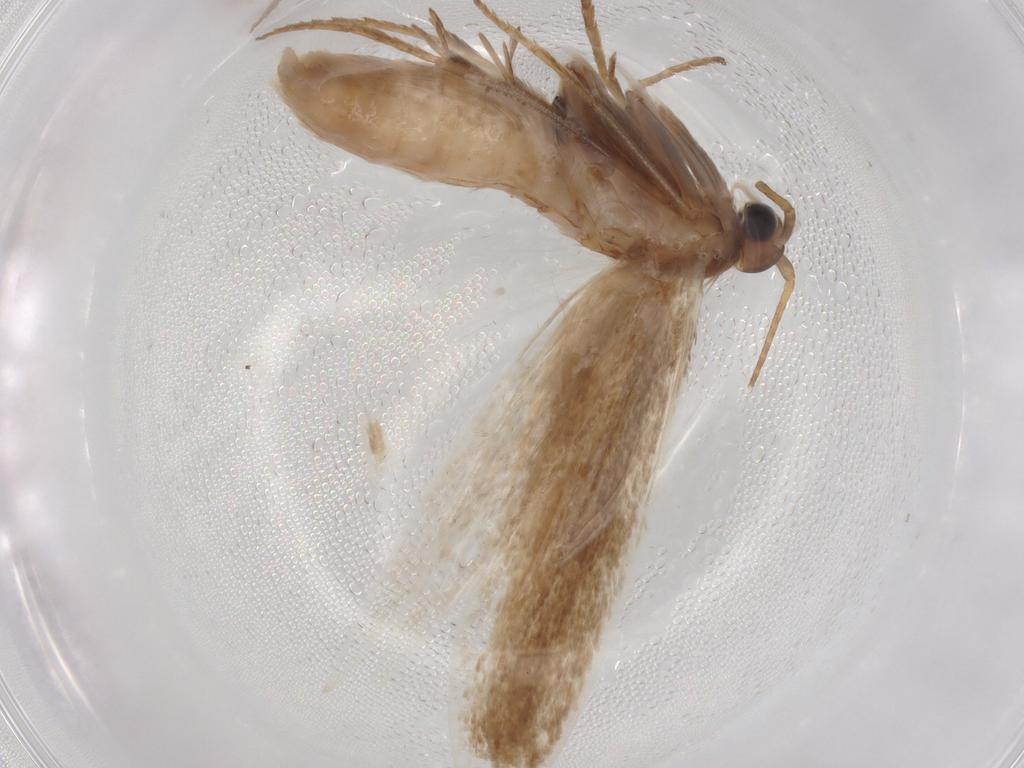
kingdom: Animalia
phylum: Arthropoda
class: Insecta
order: Lepidoptera
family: Coleophoridae
